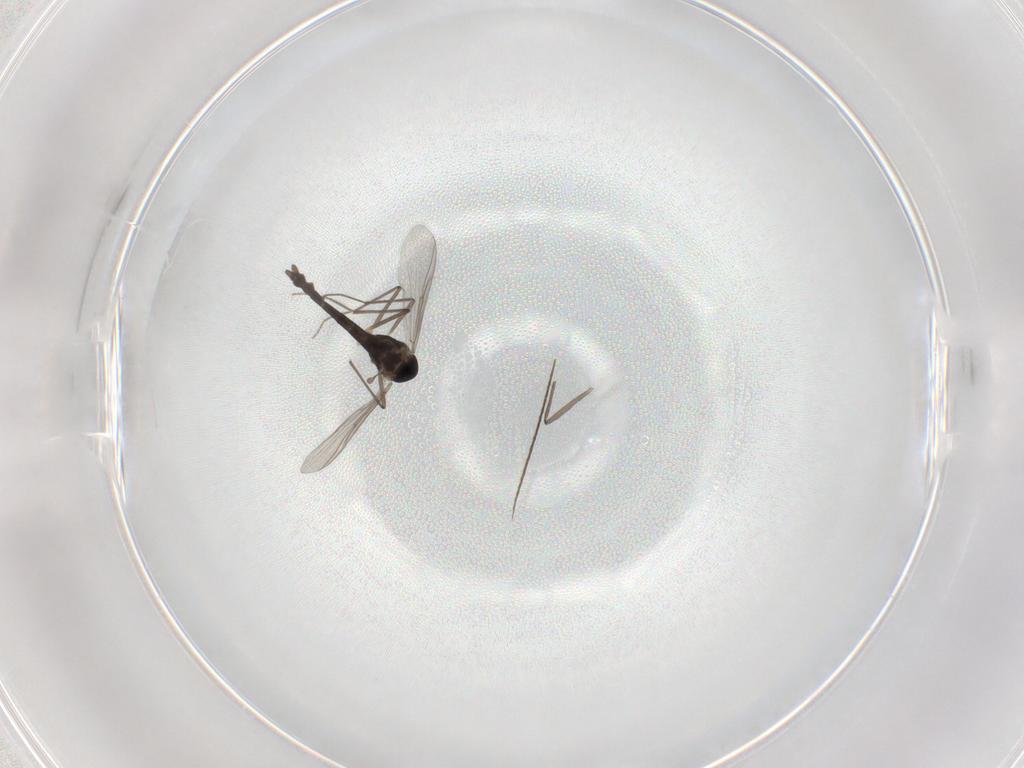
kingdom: Animalia
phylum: Arthropoda
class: Insecta
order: Diptera
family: Chironomidae
